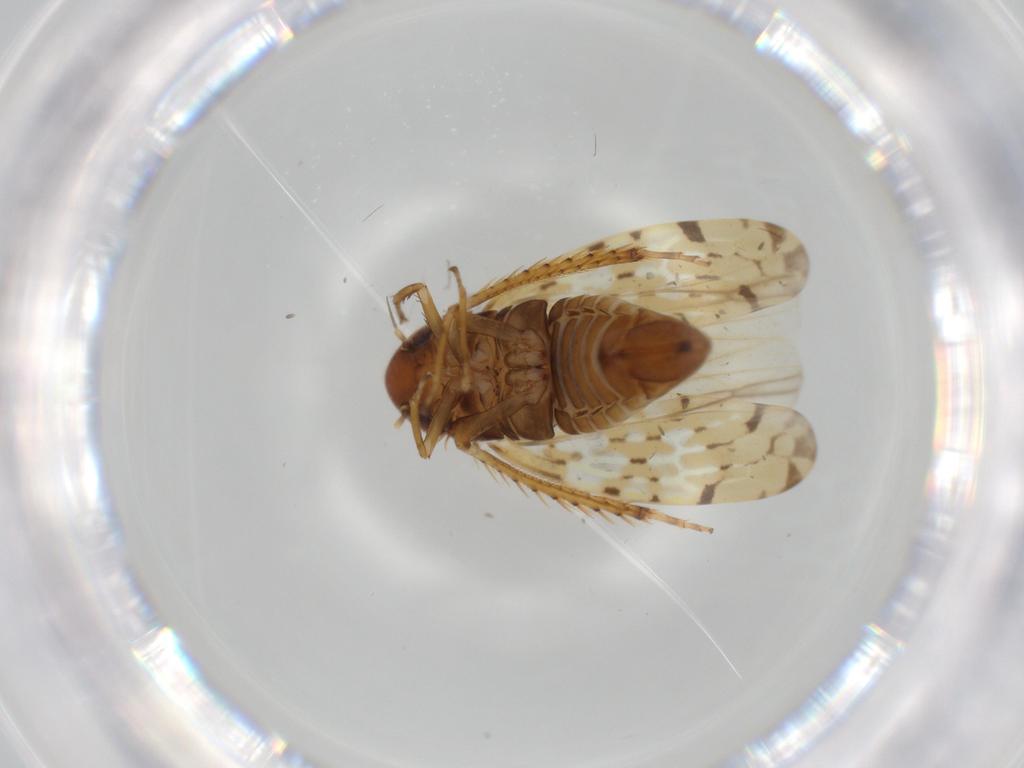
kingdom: Animalia
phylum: Arthropoda
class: Insecta
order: Hemiptera
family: Cicadellidae
